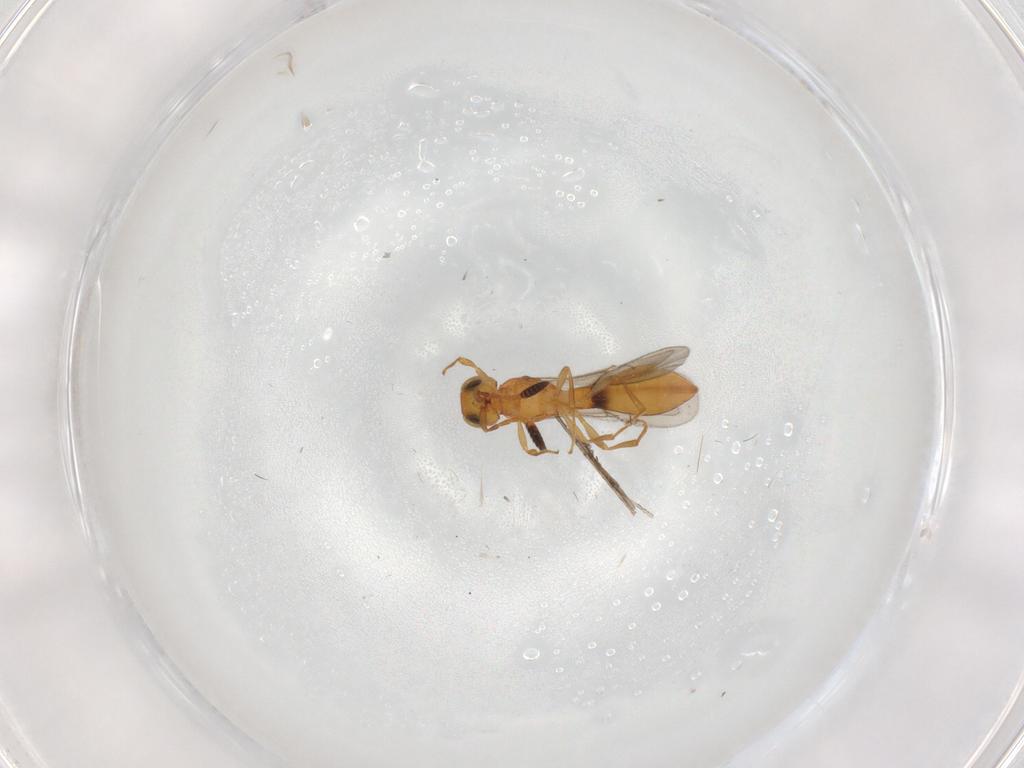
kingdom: Animalia
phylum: Arthropoda
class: Insecta
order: Hymenoptera
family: Scelionidae
